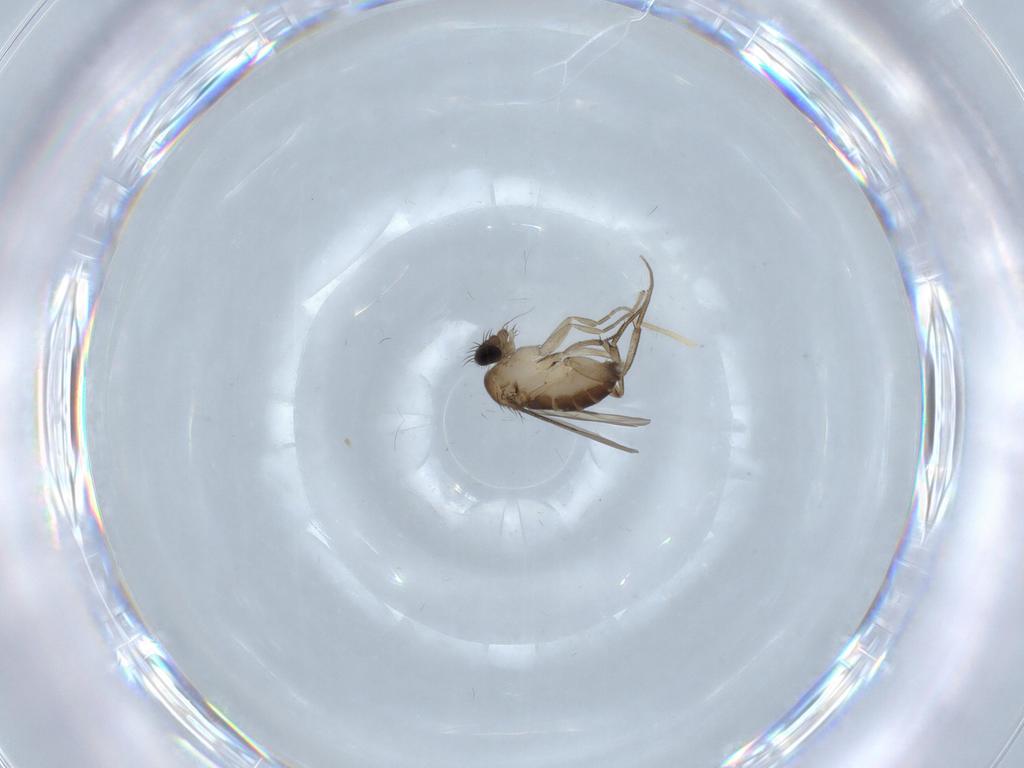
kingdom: Animalia
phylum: Arthropoda
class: Insecta
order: Diptera
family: Phoridae
